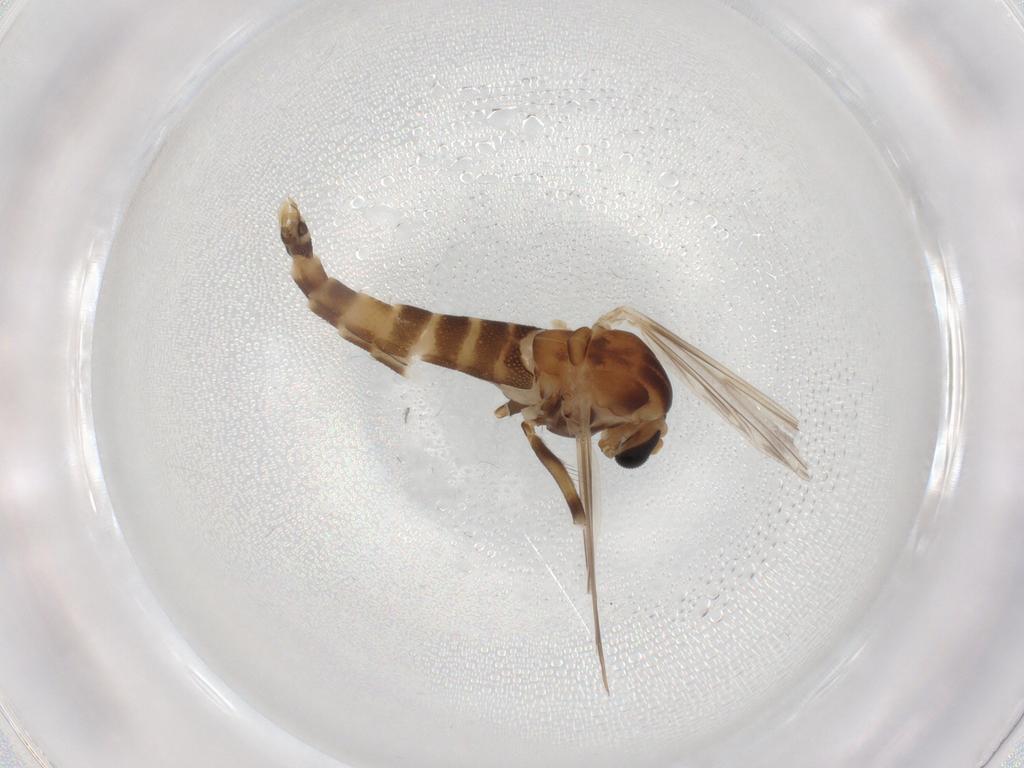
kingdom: Animalia
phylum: Arthropoda
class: Insecta
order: Diptera
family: Chironomidae
